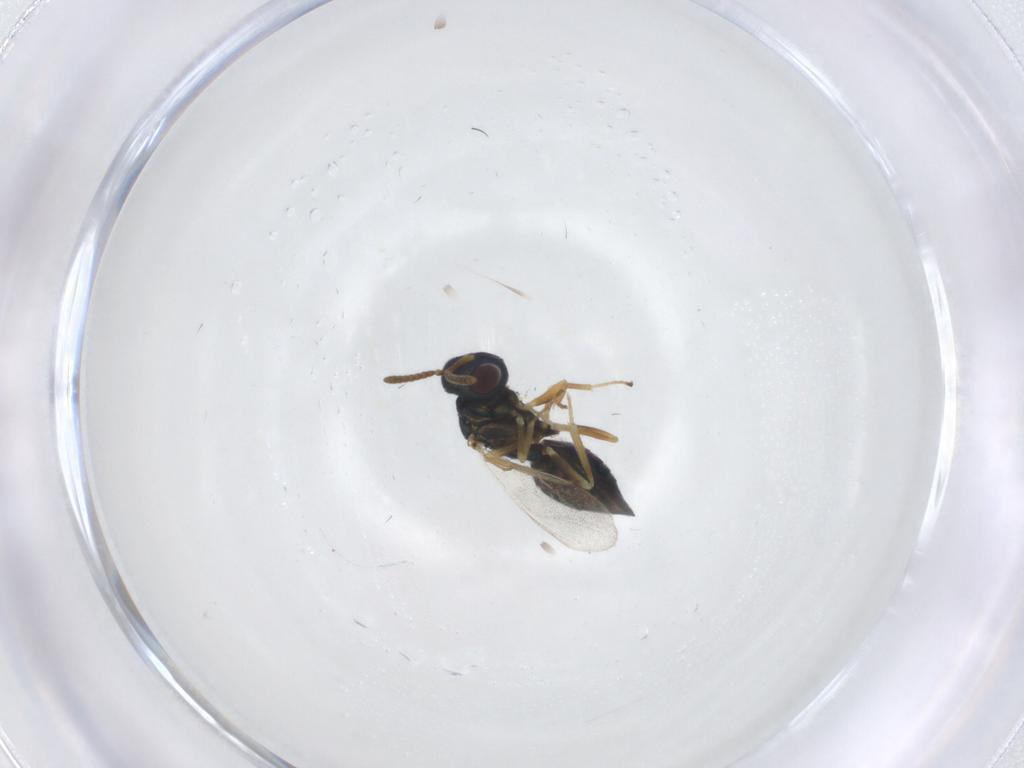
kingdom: Animalia
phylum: Arthropoda
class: Insecta
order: Hymenoptera
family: Pteromalidae
